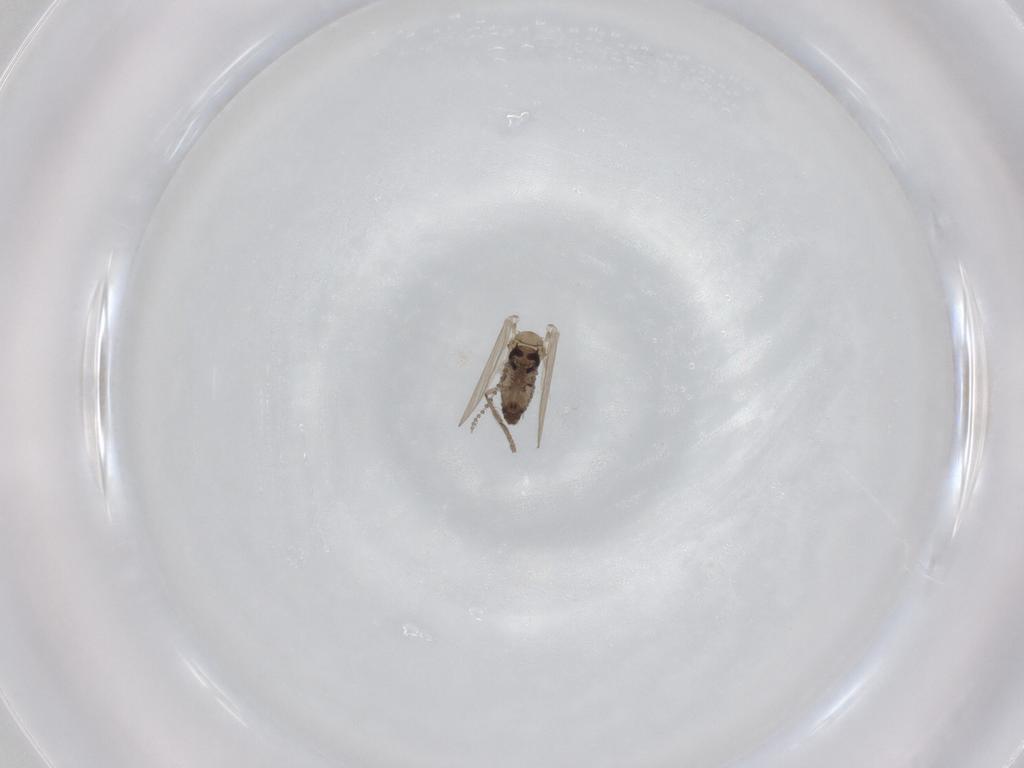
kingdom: Animalia
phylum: Arthropoda
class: Insecta
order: Diptera
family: Psychodidae
